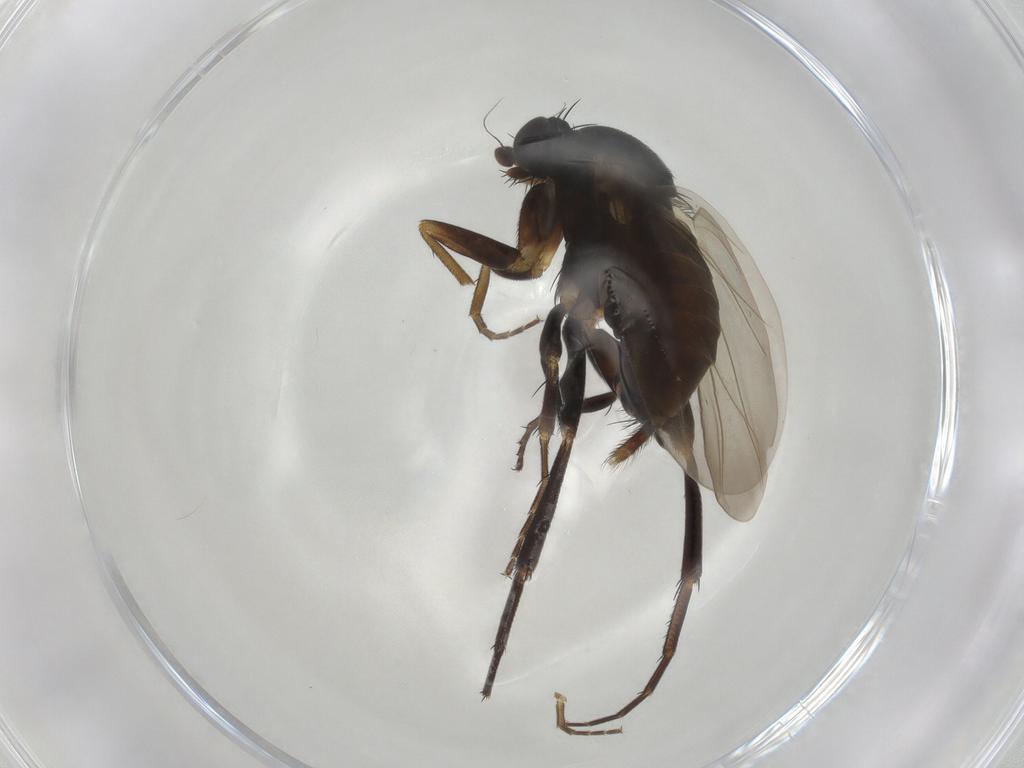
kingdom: Animalia
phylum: Arthropoda
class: Insecta
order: Diptera
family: Phoridae
